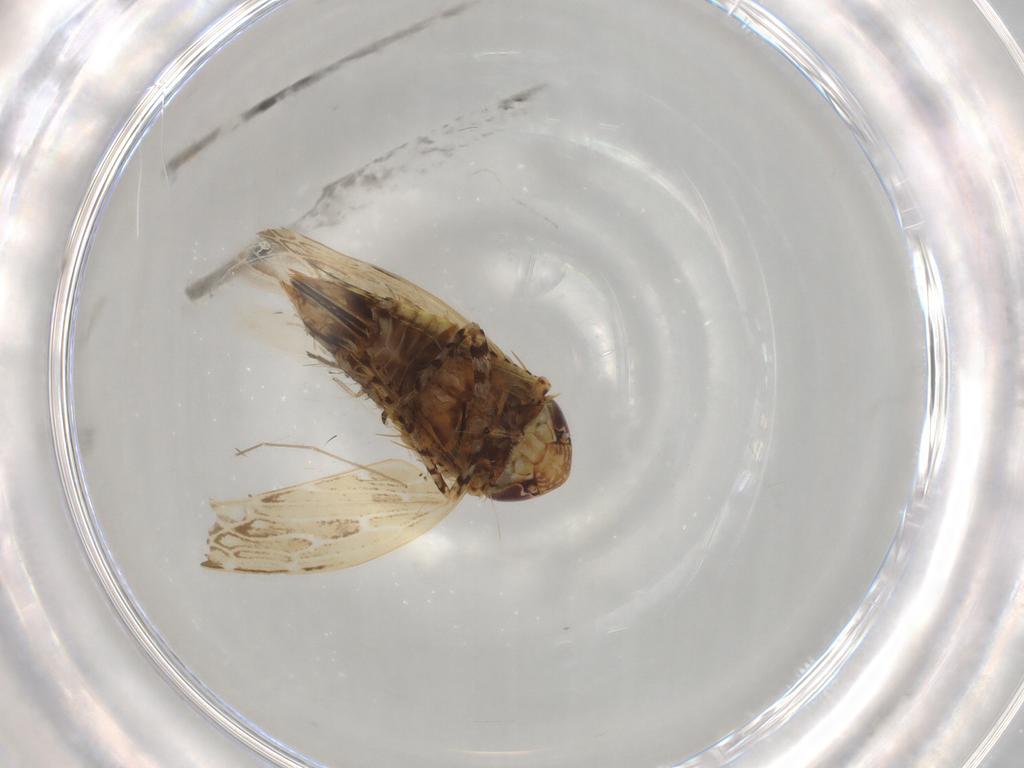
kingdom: Animalia
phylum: Arthropoda
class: Insecta
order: Hemiptera
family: Cicadellidae
